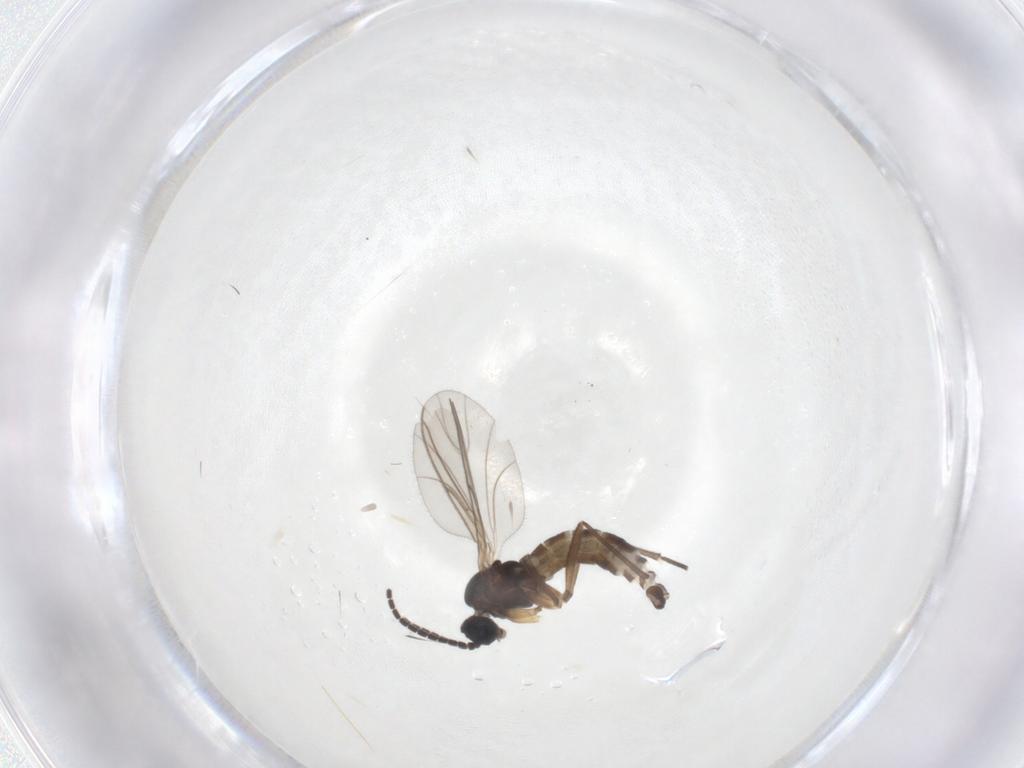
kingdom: Animalia
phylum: Arthropoda
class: Insecta
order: Diptera
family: Sciaridae
